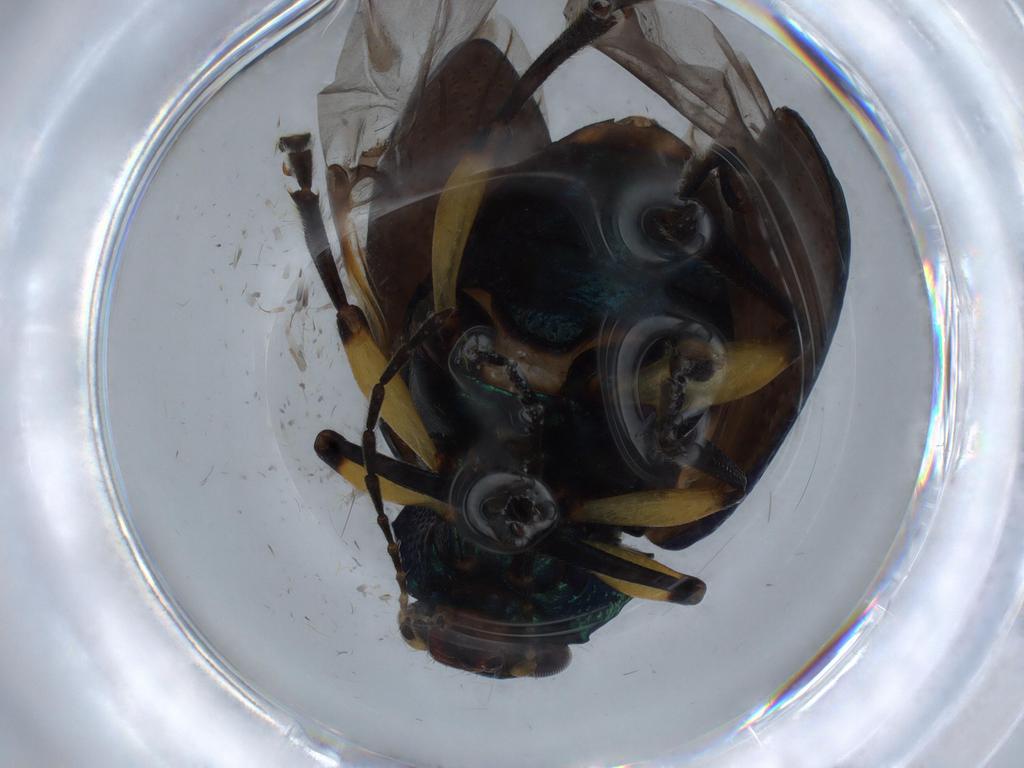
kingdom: Animalia
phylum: Arthropoda
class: Insecta
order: Coleoptera
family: Chrysomelidae
